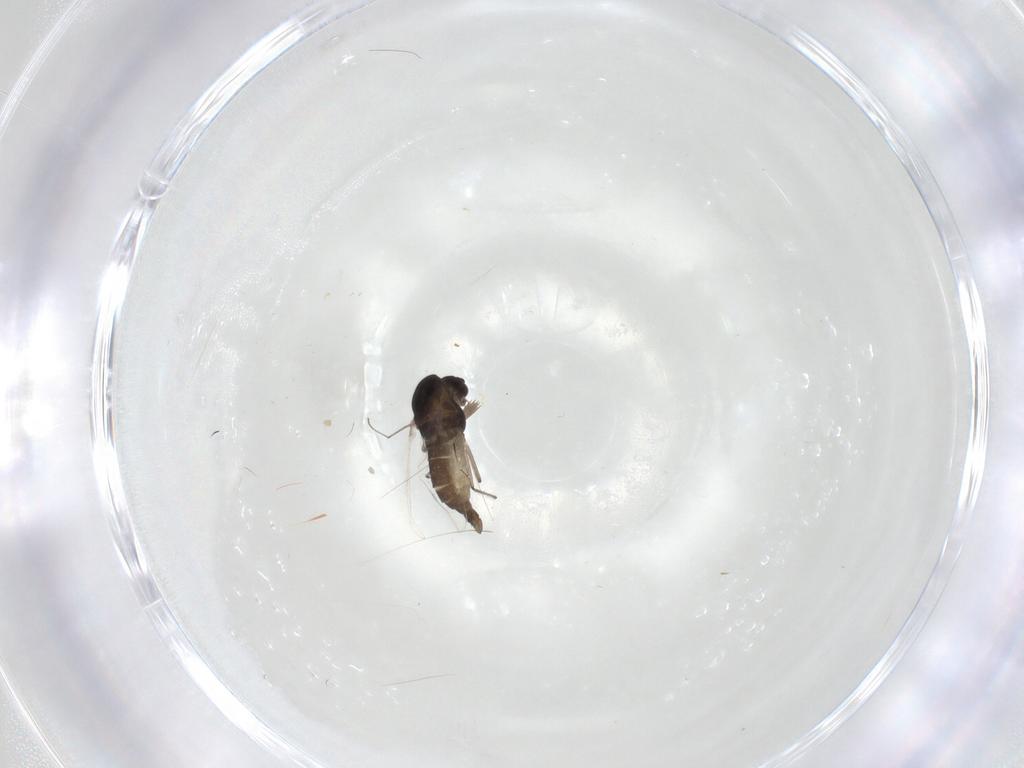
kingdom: Animalia
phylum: Arthropoda
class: Insecta
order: Diptera
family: Chironomidae
